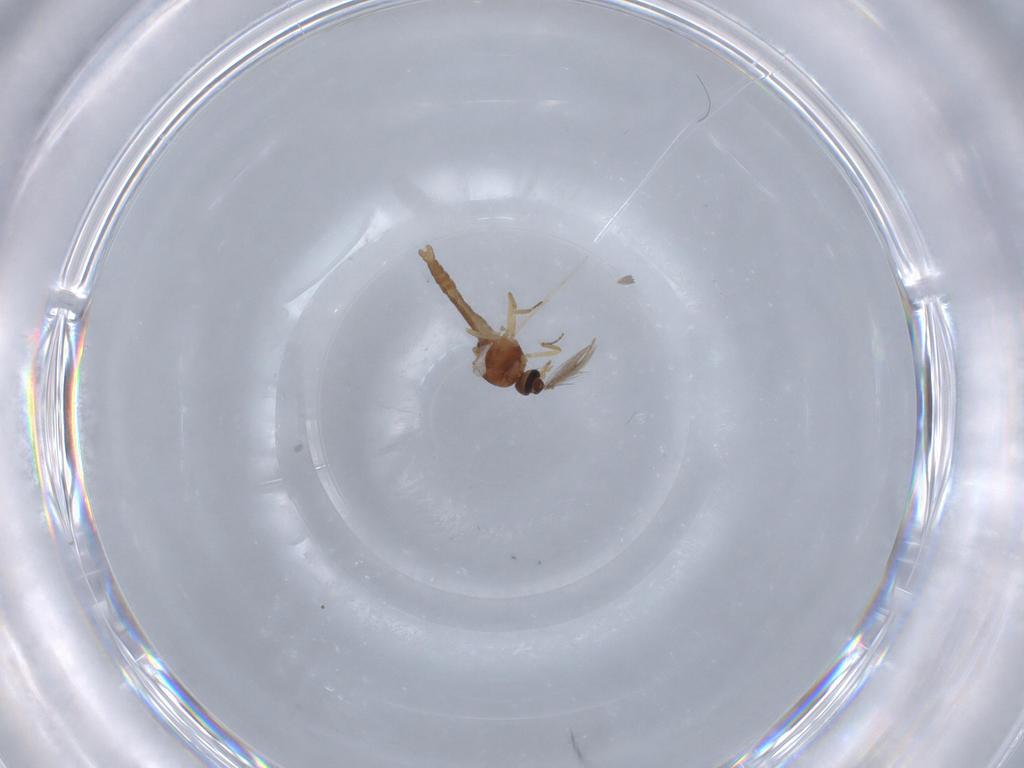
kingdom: Animalia
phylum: Arthropoda
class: Insecta
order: Diptera
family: Ceratopogonidae
